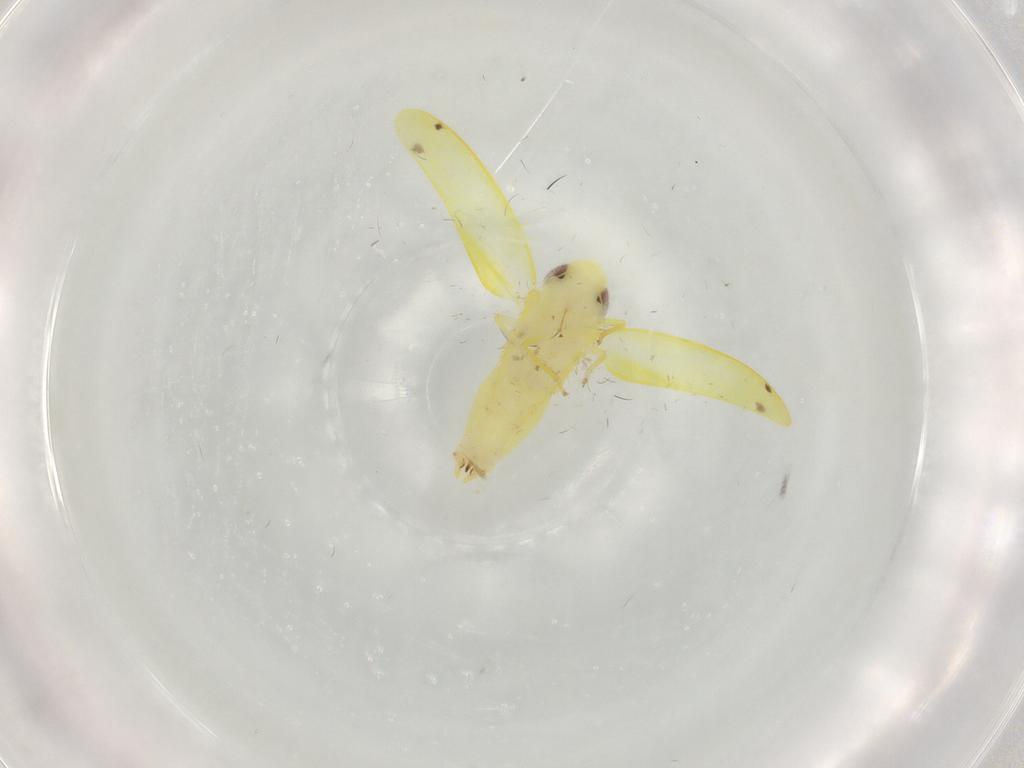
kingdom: Animalia
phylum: Arthropoda
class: Insecta
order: Hemiptera
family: Cicadellidae
